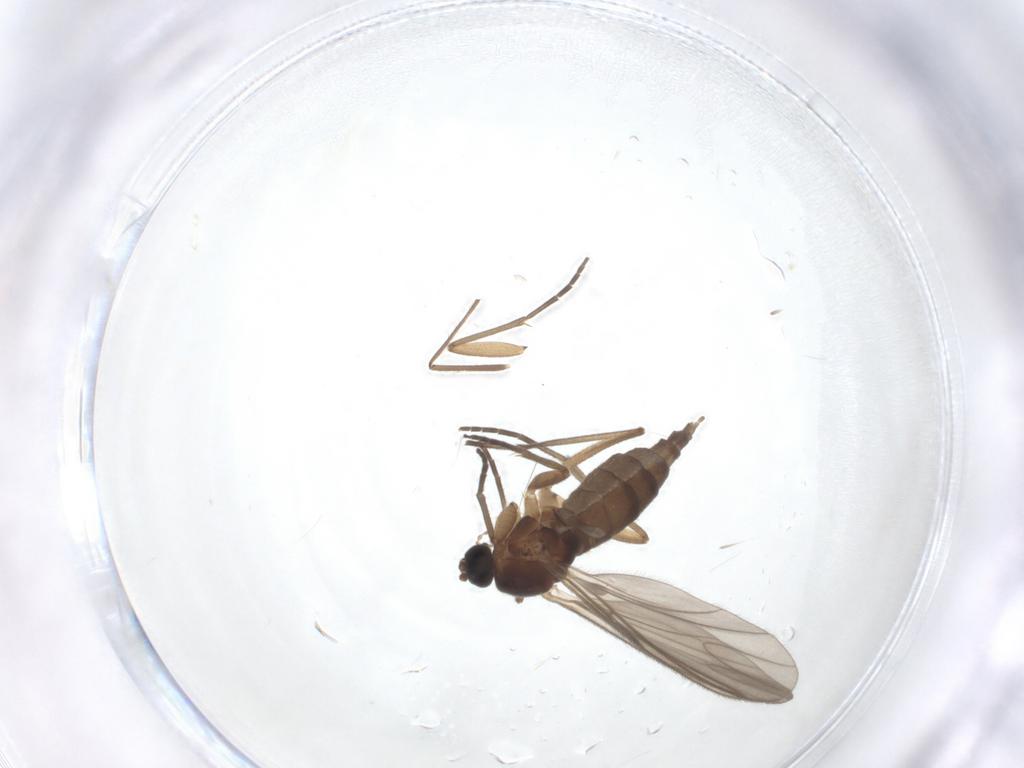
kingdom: Animalia
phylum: Arthropoda
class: Insecta
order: Diptera
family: Sciaridae
